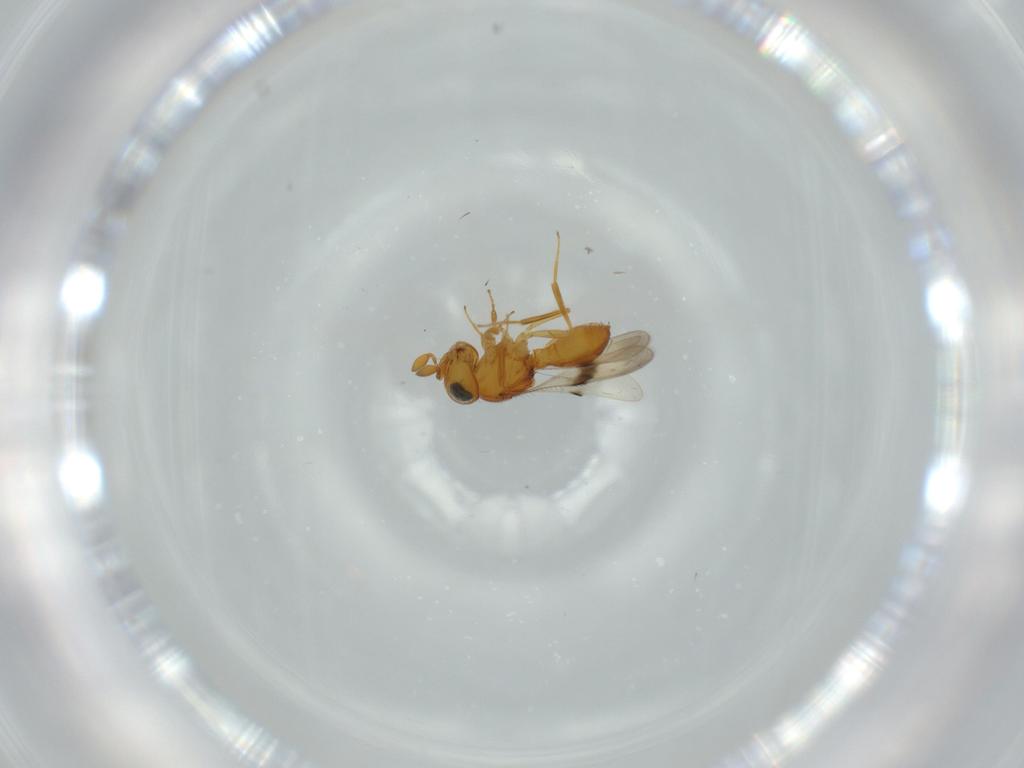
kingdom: Animalia
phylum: Arthropoda
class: Insecta
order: Hymenoptera
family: Scelionidae
